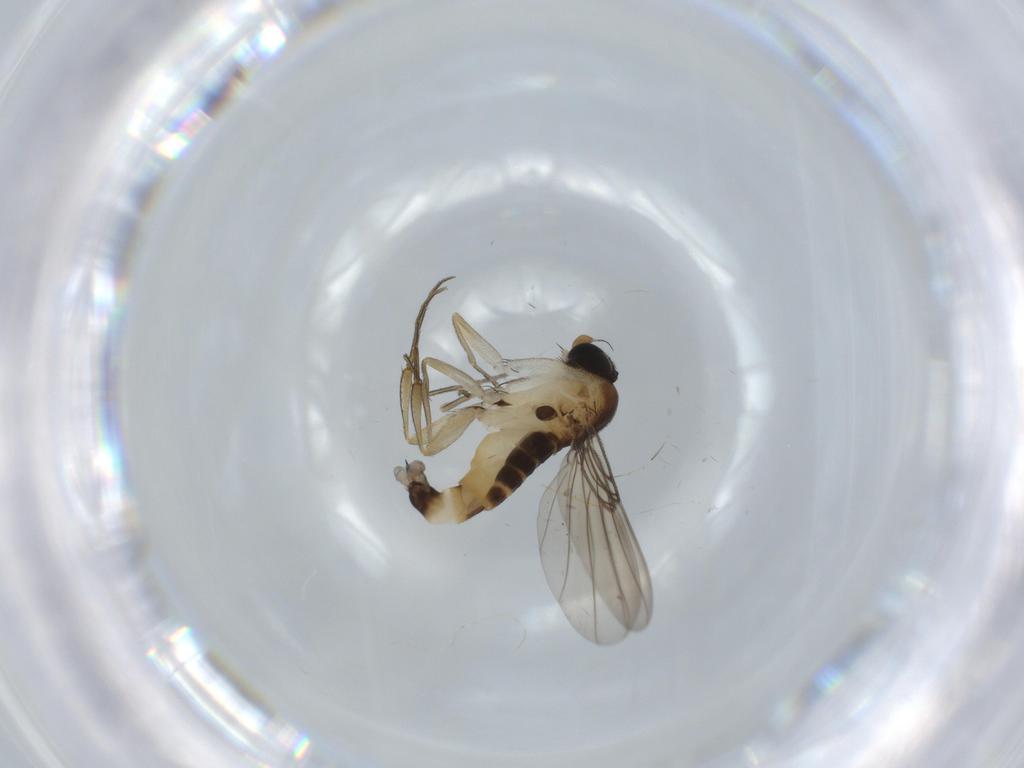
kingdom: Animalia
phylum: Arthropoda
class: Insecta
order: Diptera
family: Phoridae
